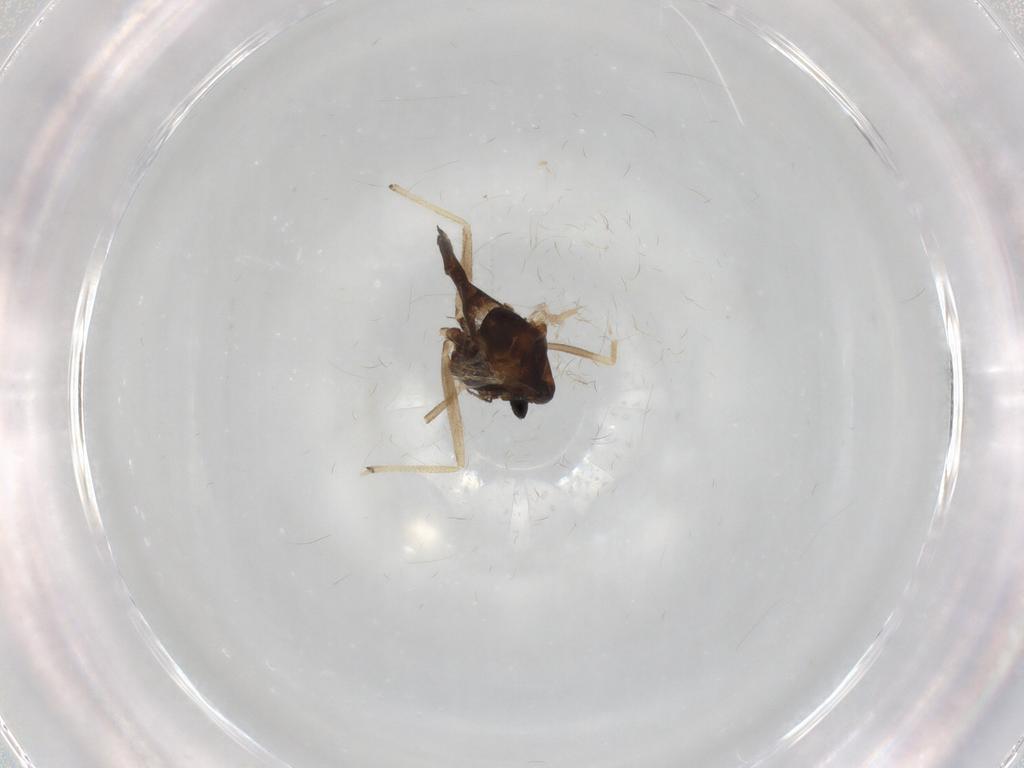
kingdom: Animalia
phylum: Arthropoda
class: Insecta
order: Diptera
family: Chironomidae
